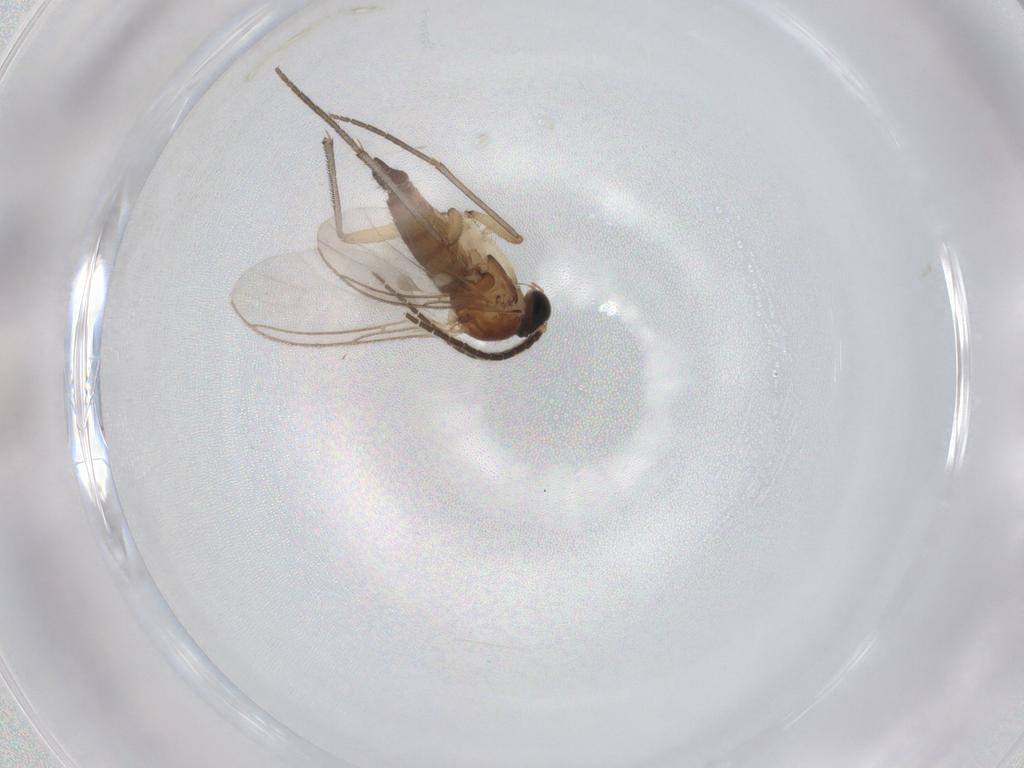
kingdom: Animalia
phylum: Arthropoda
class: Insecta
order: Diptera
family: Sciaridae
